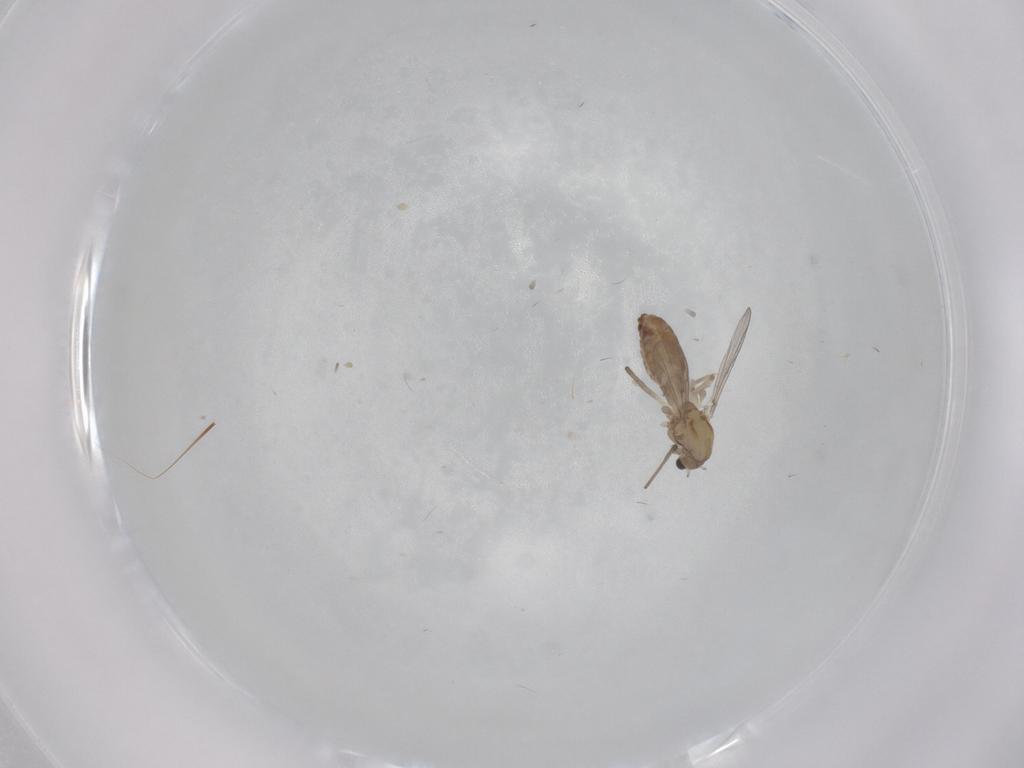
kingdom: Animalia
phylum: Arthropoda
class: Insecta
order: Diptera
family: Chironomidae
